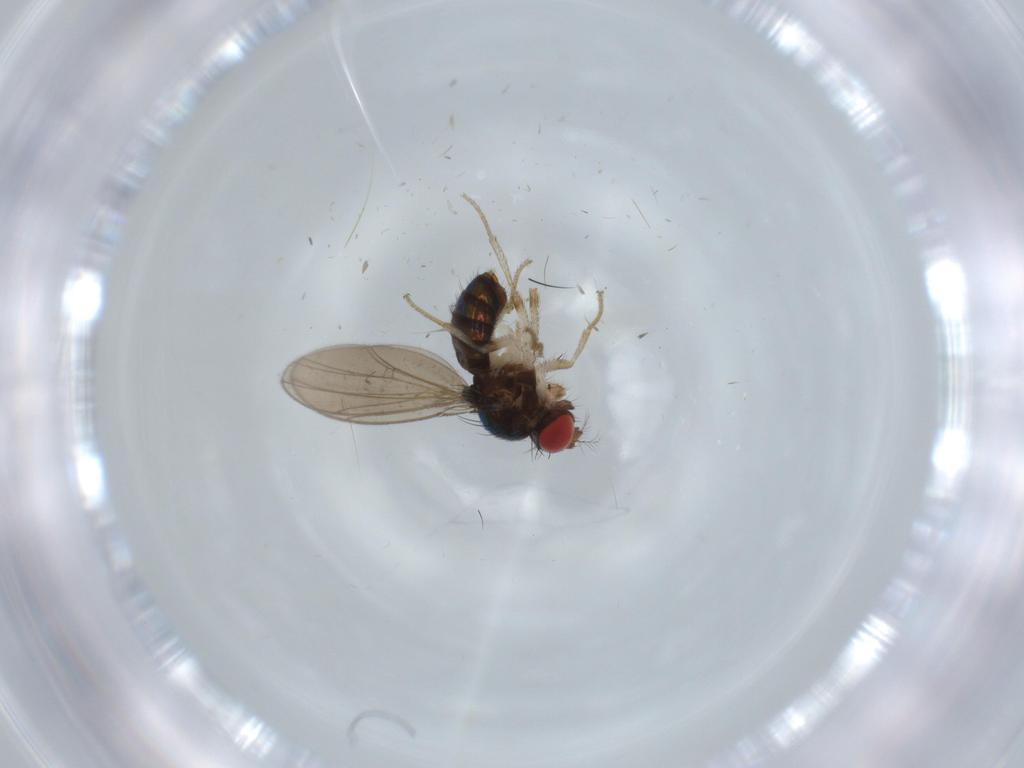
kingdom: Animalia
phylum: Arthropoda
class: Insecta
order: Diptera
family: Drosophilidae
